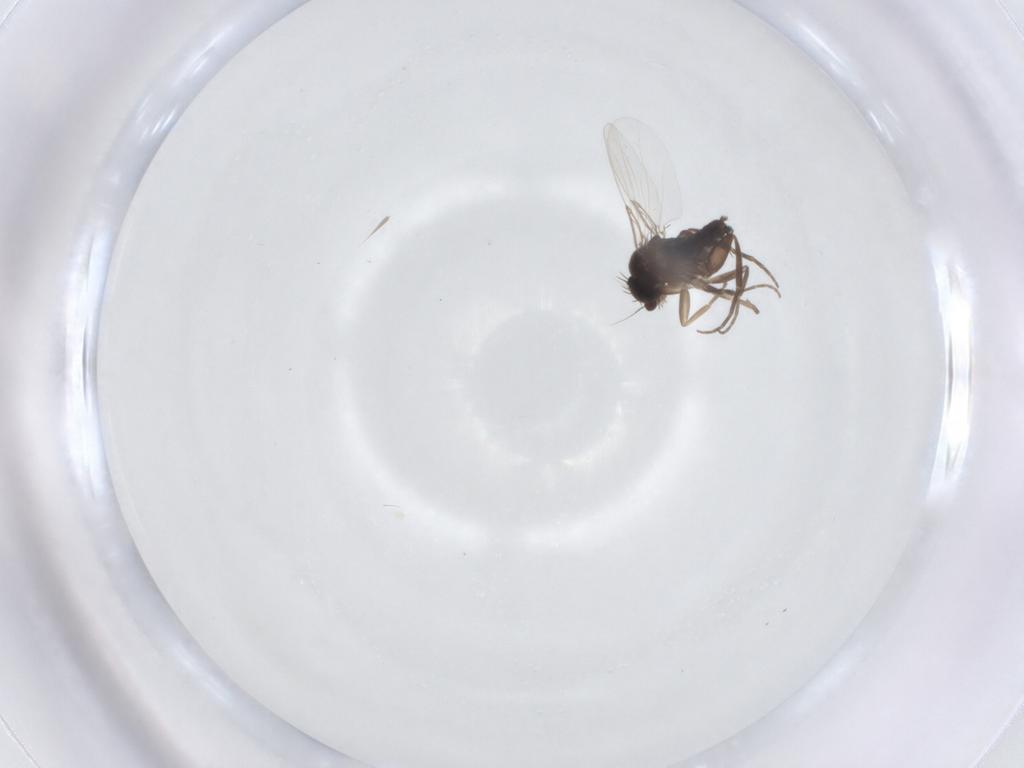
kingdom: Animalia
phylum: Arthropoda
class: Insecta
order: Diptera
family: Phoridae
